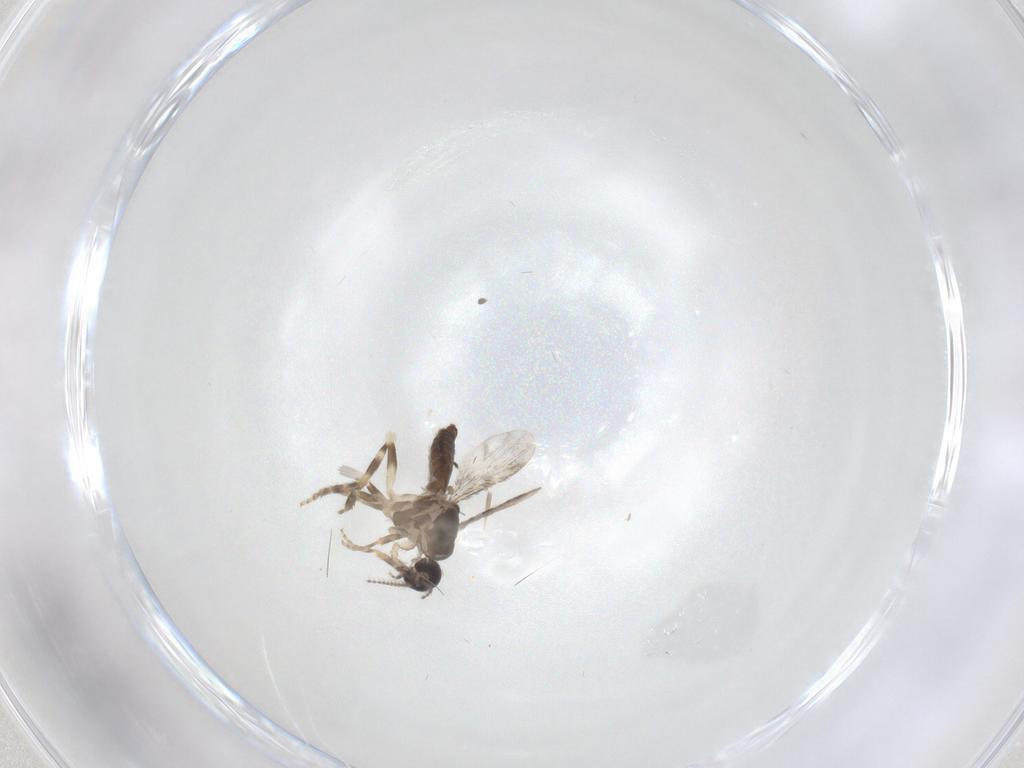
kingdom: Animalia
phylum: Arthropoda
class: Insecta
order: Diptera
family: Ceratopogonidae
